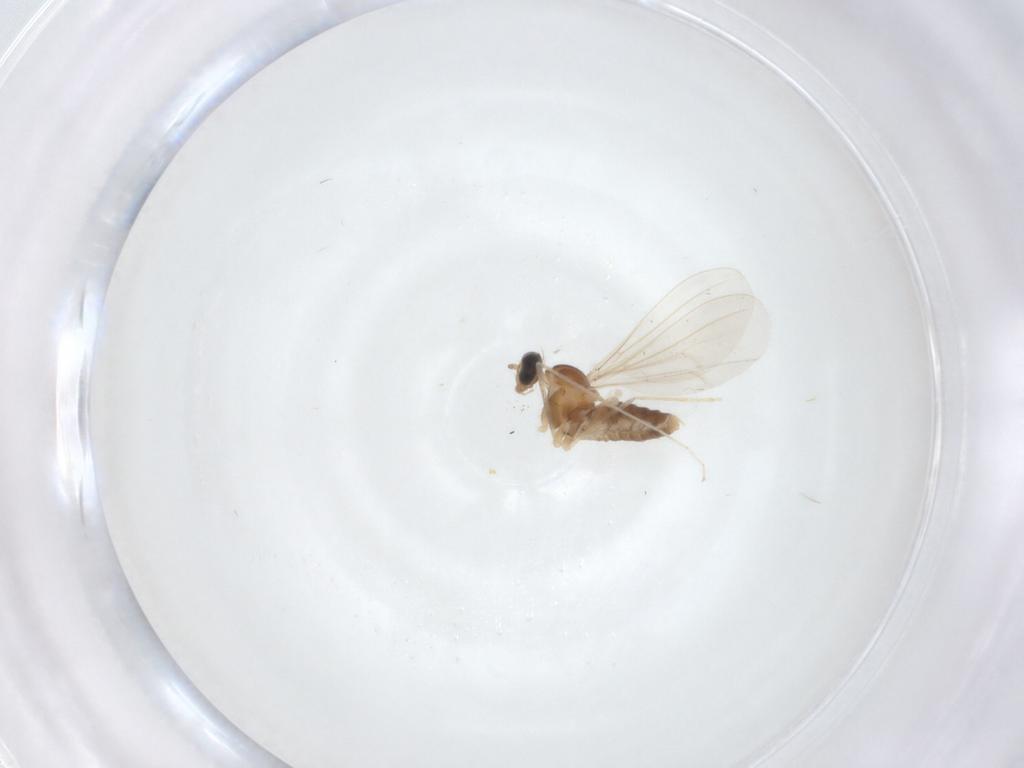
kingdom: Animalia
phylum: Arthropoda
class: Insecta
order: Diptera
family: Cecidomyiidae
